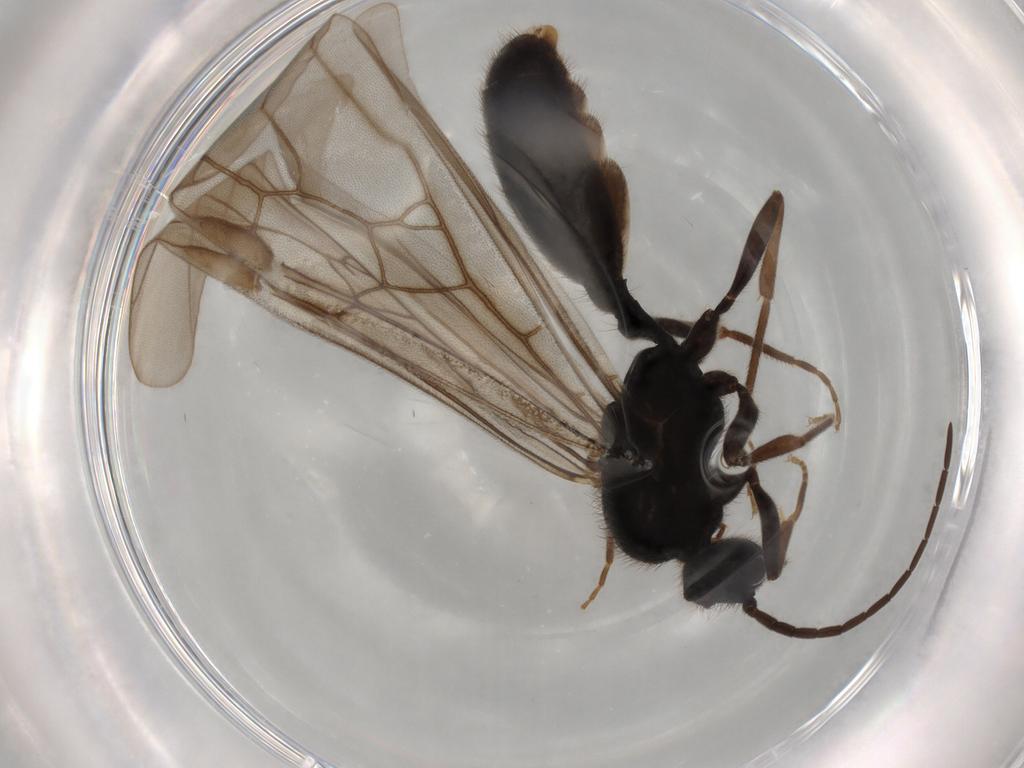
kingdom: Animalia
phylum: Arthropoda
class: Insecta
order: Hymenoptera
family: Formicidae
